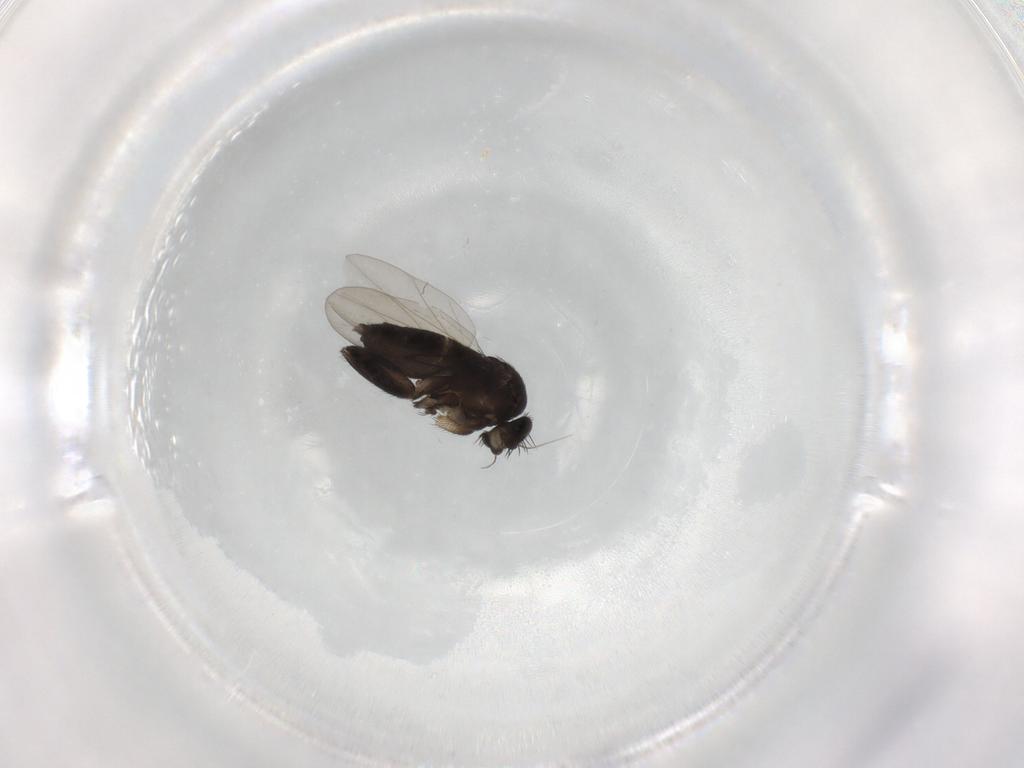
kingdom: Animalia
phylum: Arthropoda
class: Insecta
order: Diptera
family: Phoridae
